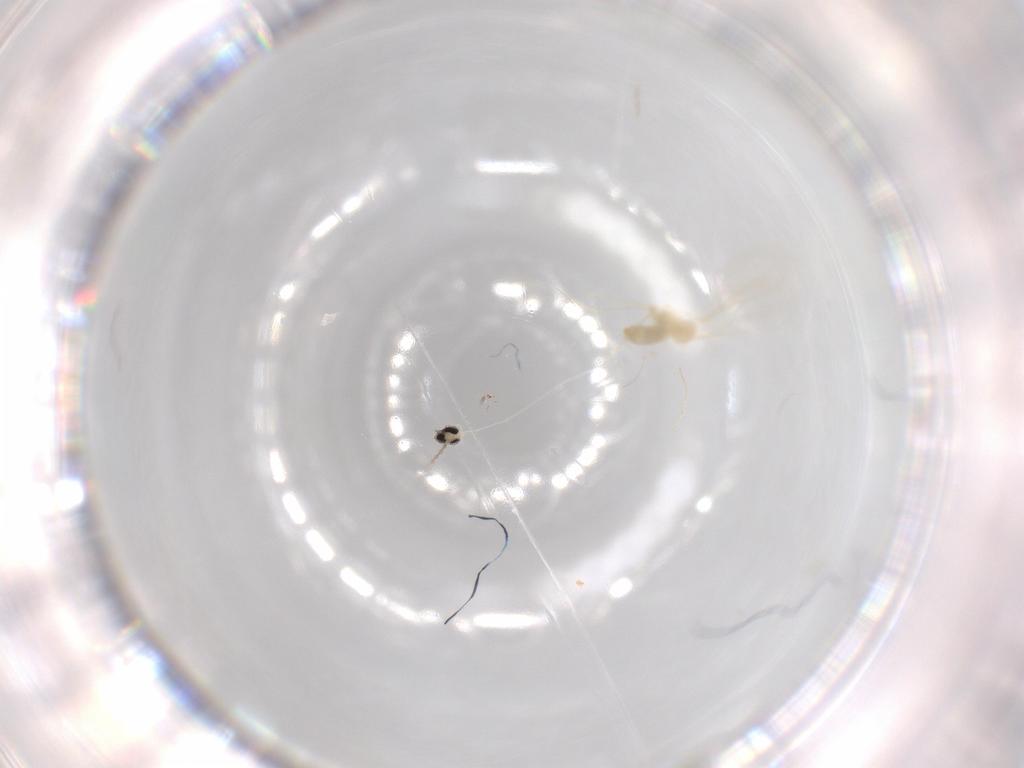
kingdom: Animalia
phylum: Arthropoda
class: Insecta
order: Diptera
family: Cecidomyiidae
